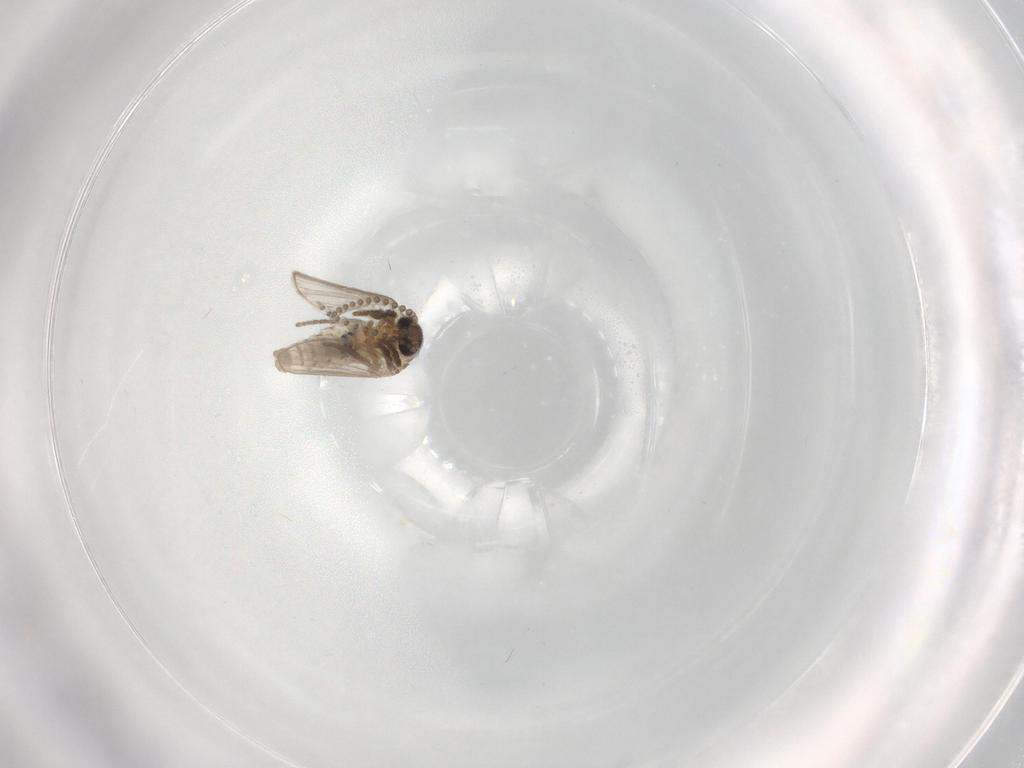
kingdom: Animalia
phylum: Arthropoda
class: Insecta
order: Diptera
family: Psychodidae
